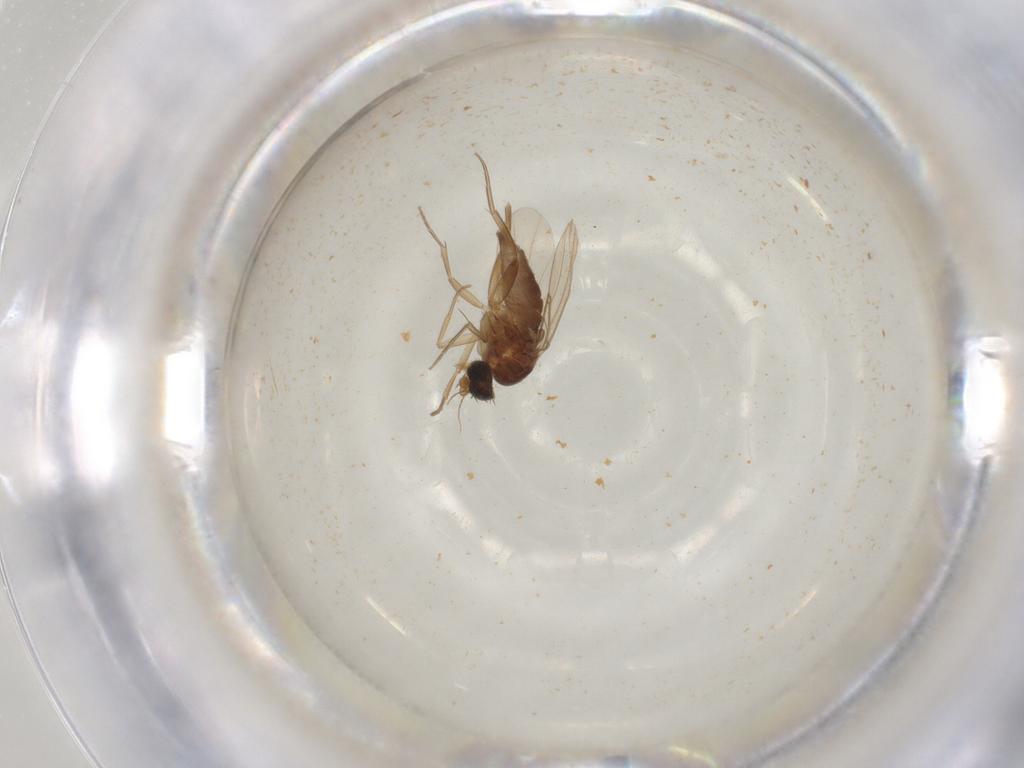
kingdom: Animalia
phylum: Arthropoda
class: Insecta
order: Diptera
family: Phoridae
